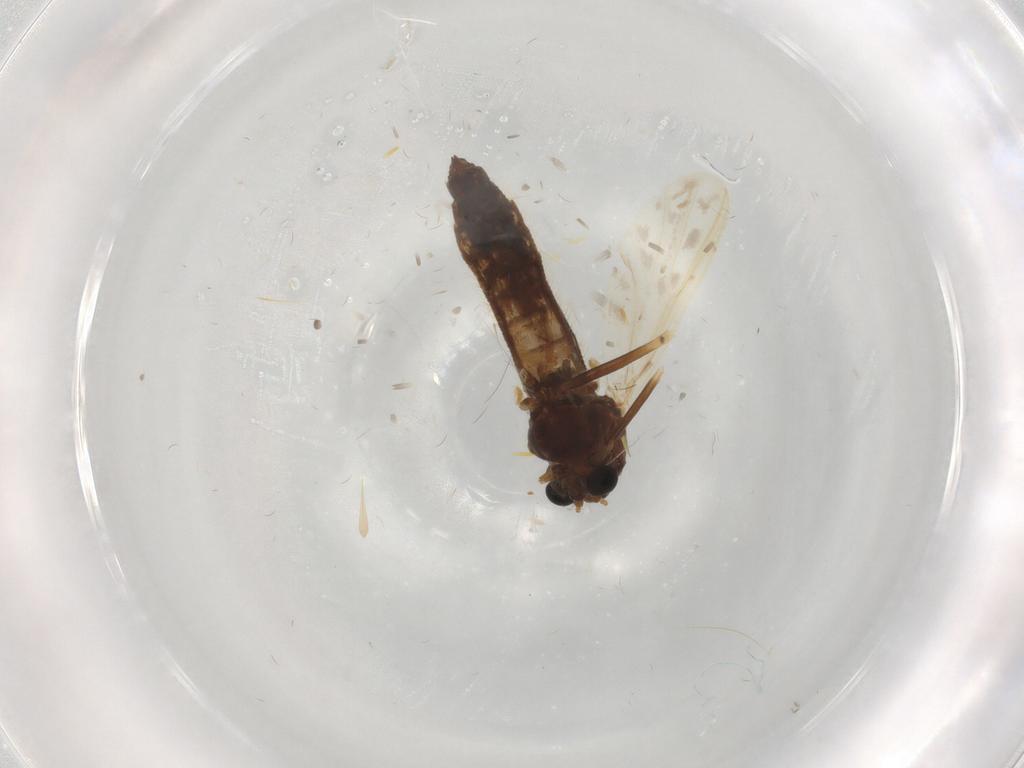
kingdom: Animalia
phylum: Arthropoda
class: Insecta
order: Diptera
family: Chironomidae
